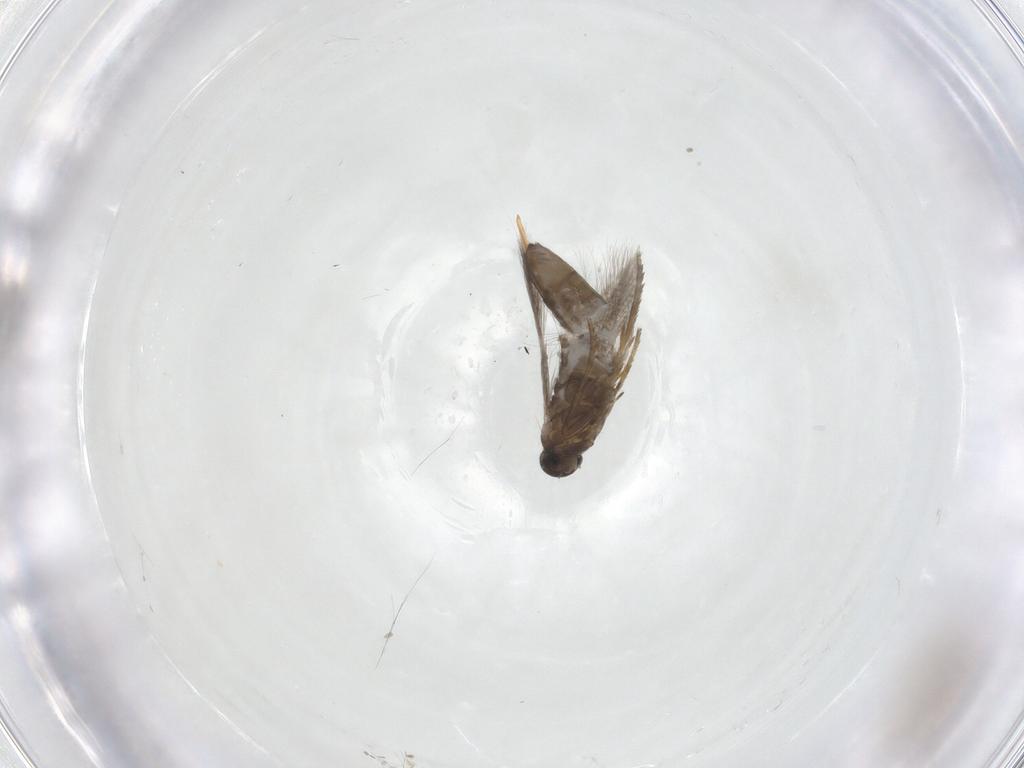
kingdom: Animalia
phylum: Arthropoda
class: Insecta
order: Lepidoptera
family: Heliozelidae
